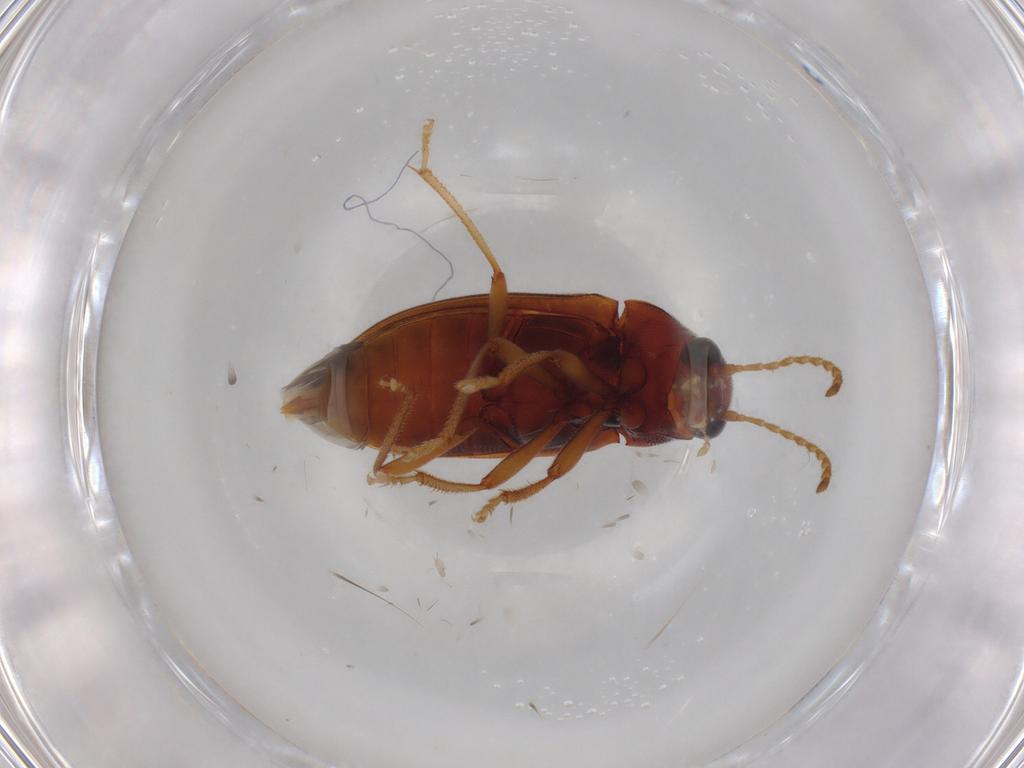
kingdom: Animalia
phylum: Arthropoda
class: Insecta
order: Coleoptera
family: Ptilodactylidae
